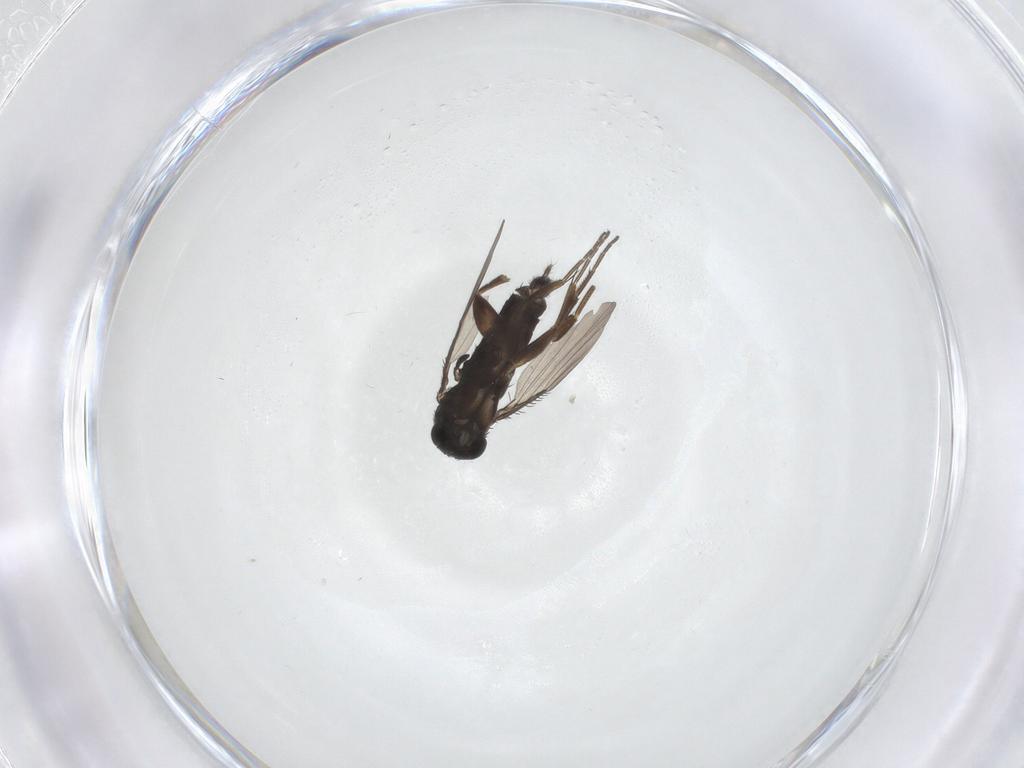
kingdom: Animalia
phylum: Arthropoda
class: Insecta
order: Diptera
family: Phoridae
